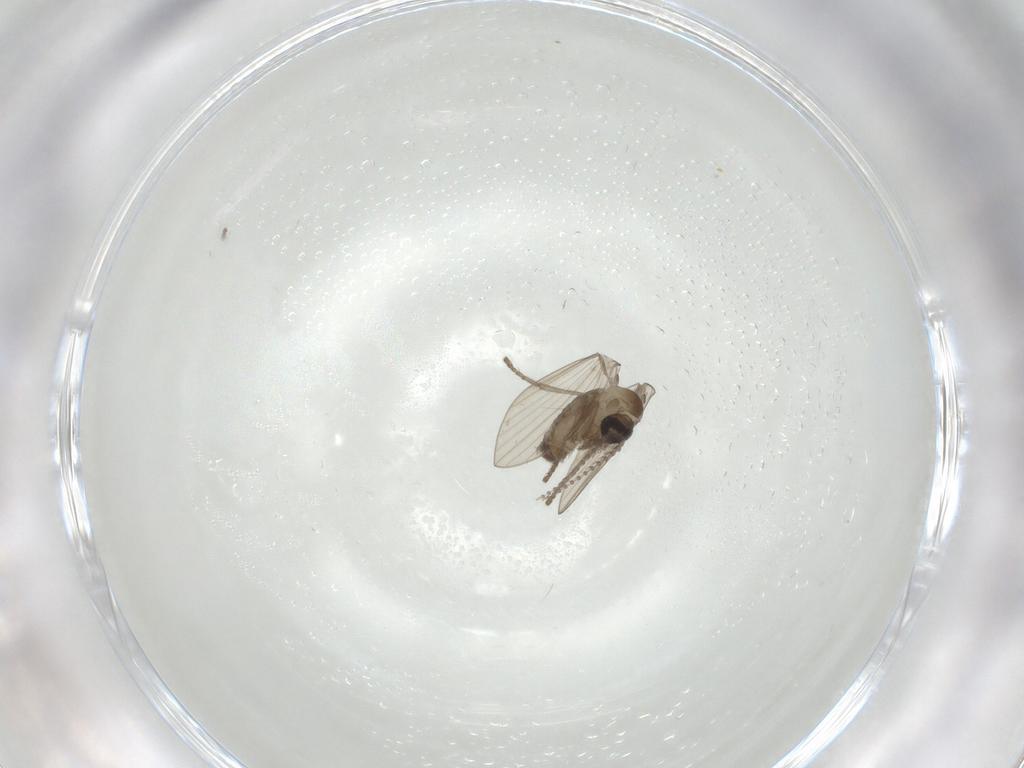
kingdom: Animalia
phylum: Arthropoda
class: Insecta
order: Diptera
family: Psychodidae
